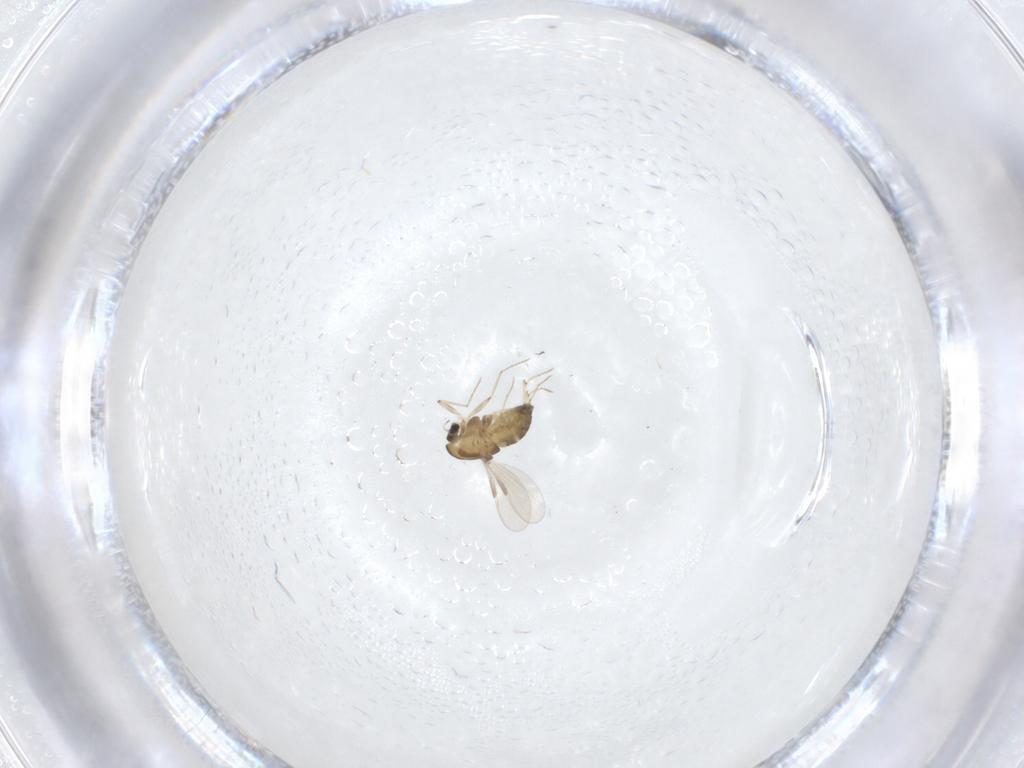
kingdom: Animalia
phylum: Arthropoda
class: Insecta
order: Diptera
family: Chironomidae
